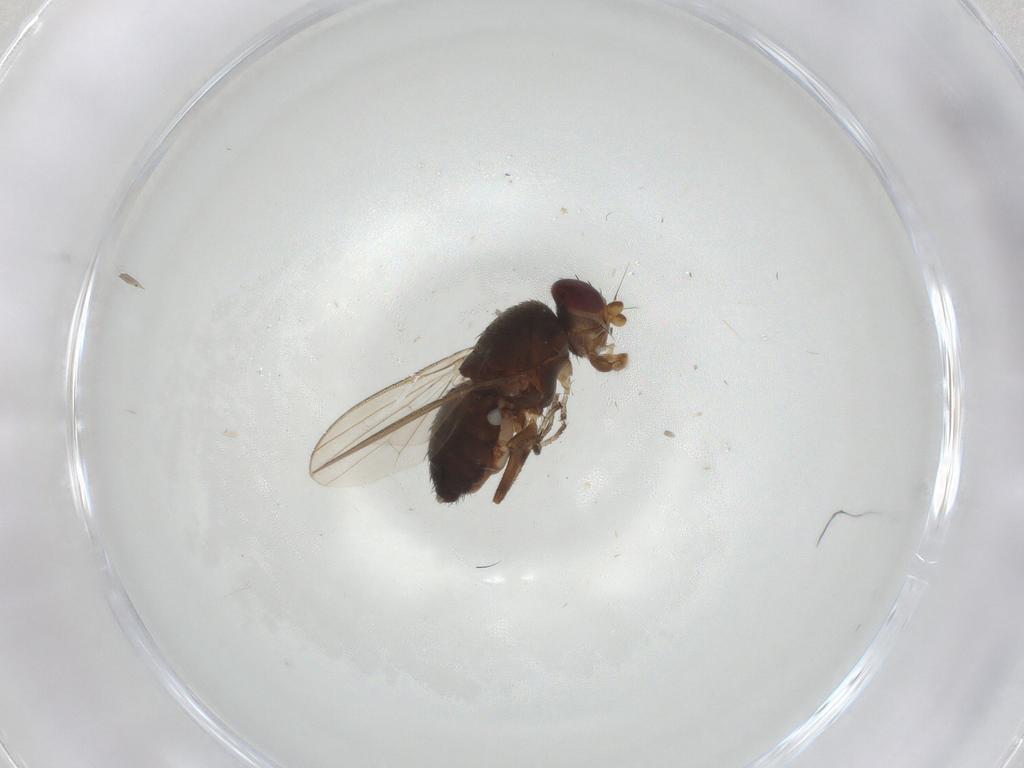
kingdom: Animalia
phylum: Arthropoda
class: Insecta
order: Diptera
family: Heleomyzidae
